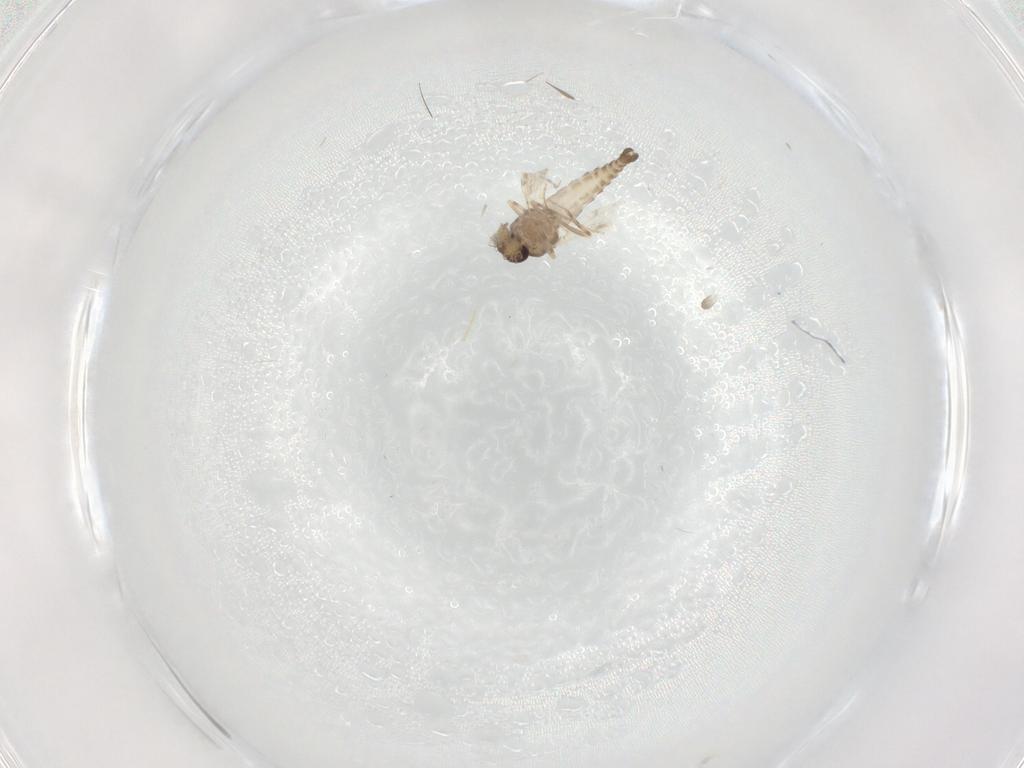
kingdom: Animalia
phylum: Arthropoda
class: Insecta
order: Diptera
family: Ceratopogonidae
